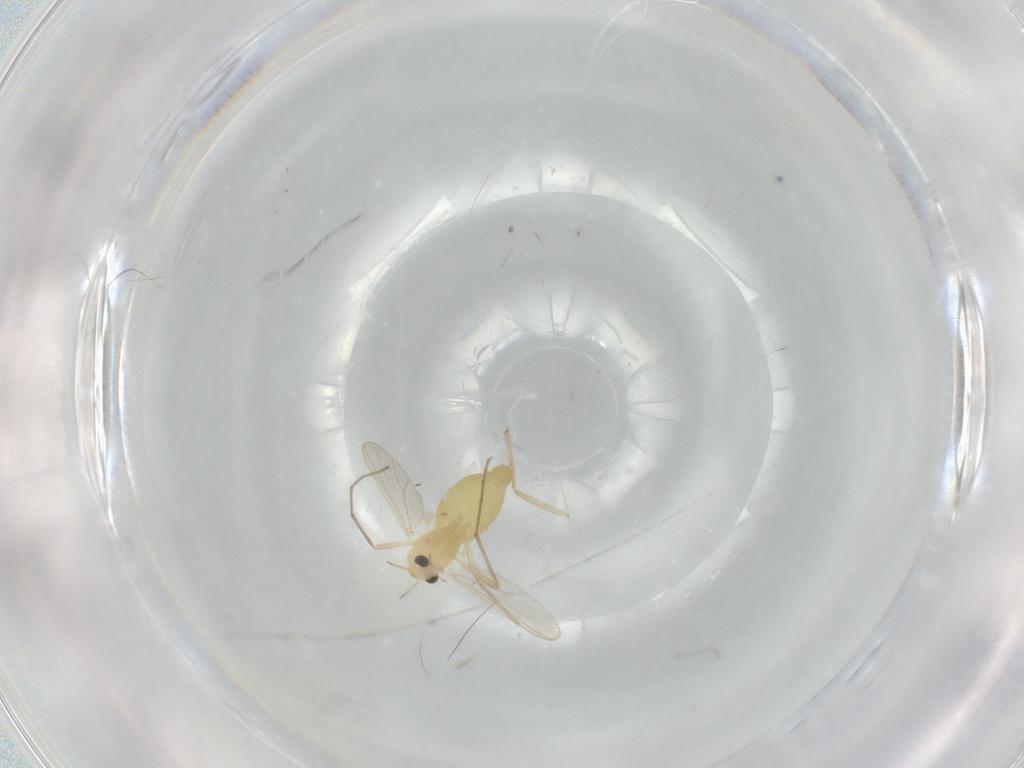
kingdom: Animalia
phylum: Arthropoda
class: Insecta
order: Diptera
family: Chironomidae
